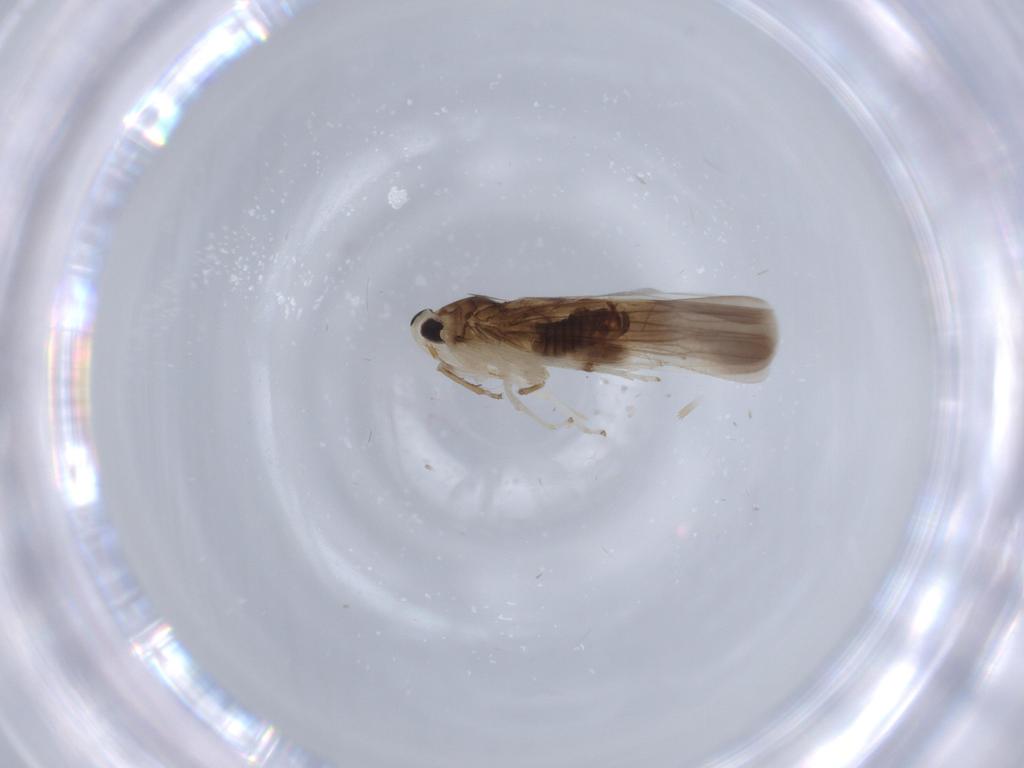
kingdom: Animalia
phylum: Arthropoda
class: Insecta
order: Hemiptera
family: Cicadellidae
